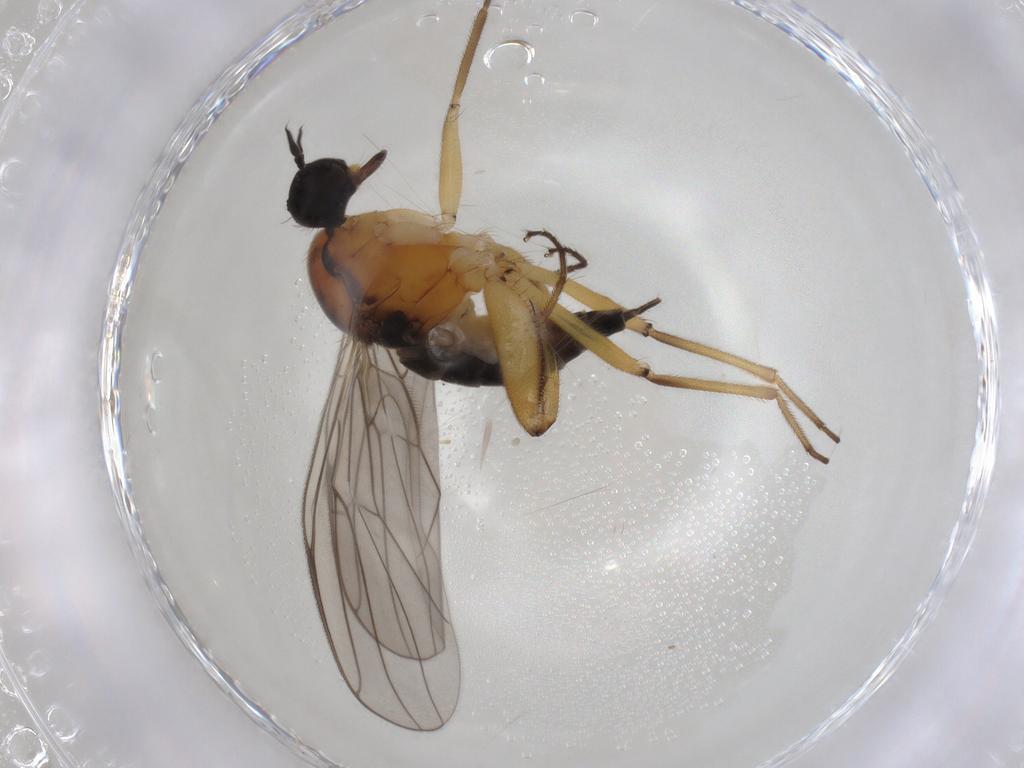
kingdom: Animalia
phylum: Arthropoda
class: Insecta
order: Diptera
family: Hybotidae
